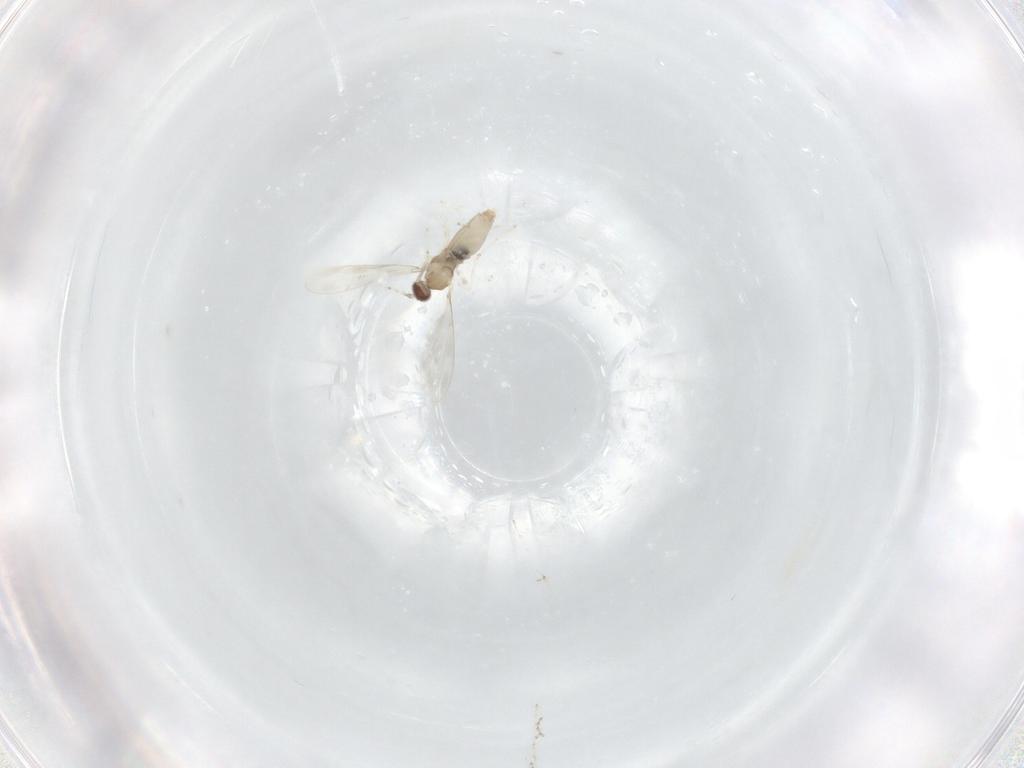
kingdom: Animalia
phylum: Arthropoda
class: Insecta
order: Diptera
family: Cecidomyiidae
